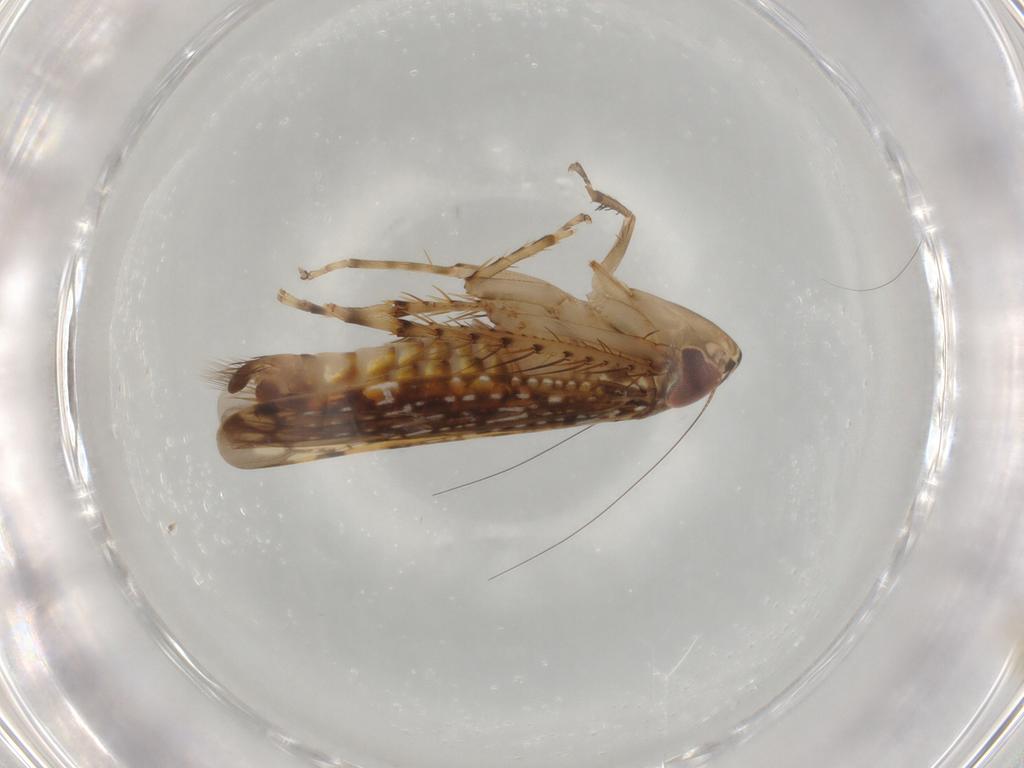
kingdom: Animalia
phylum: Arthropoda
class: Insecta
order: Hemiptera
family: Cicadellidae
